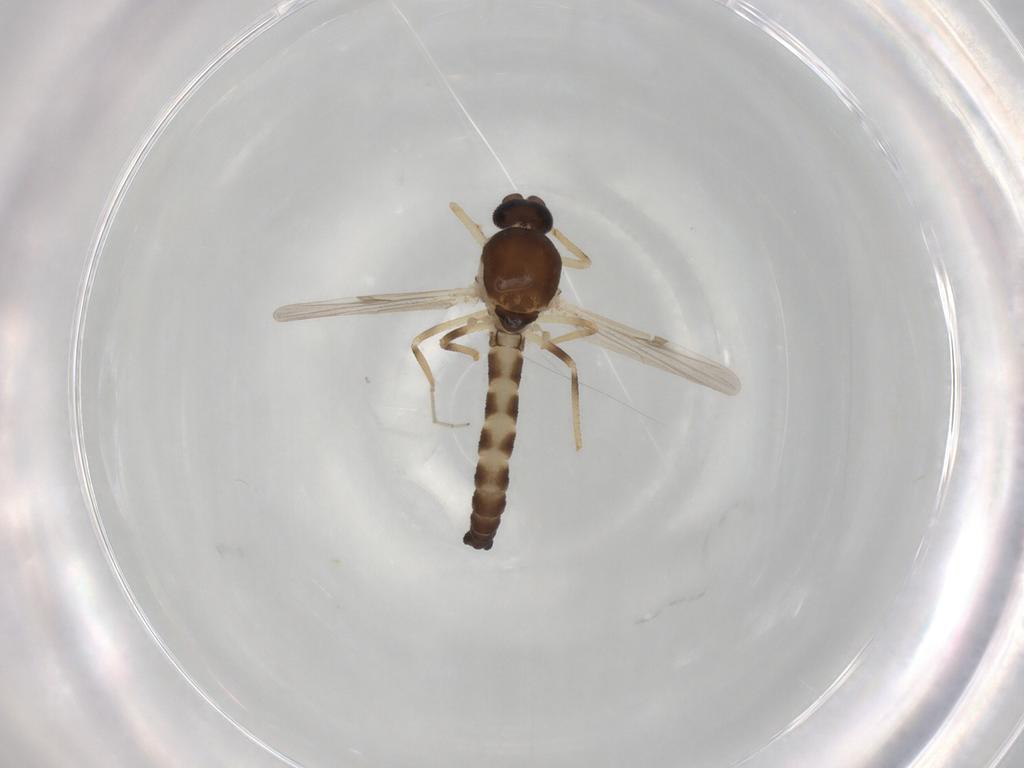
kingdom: Animalia
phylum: Arthropoda
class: Insecta
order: Diptera
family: Ceratopogonidae
